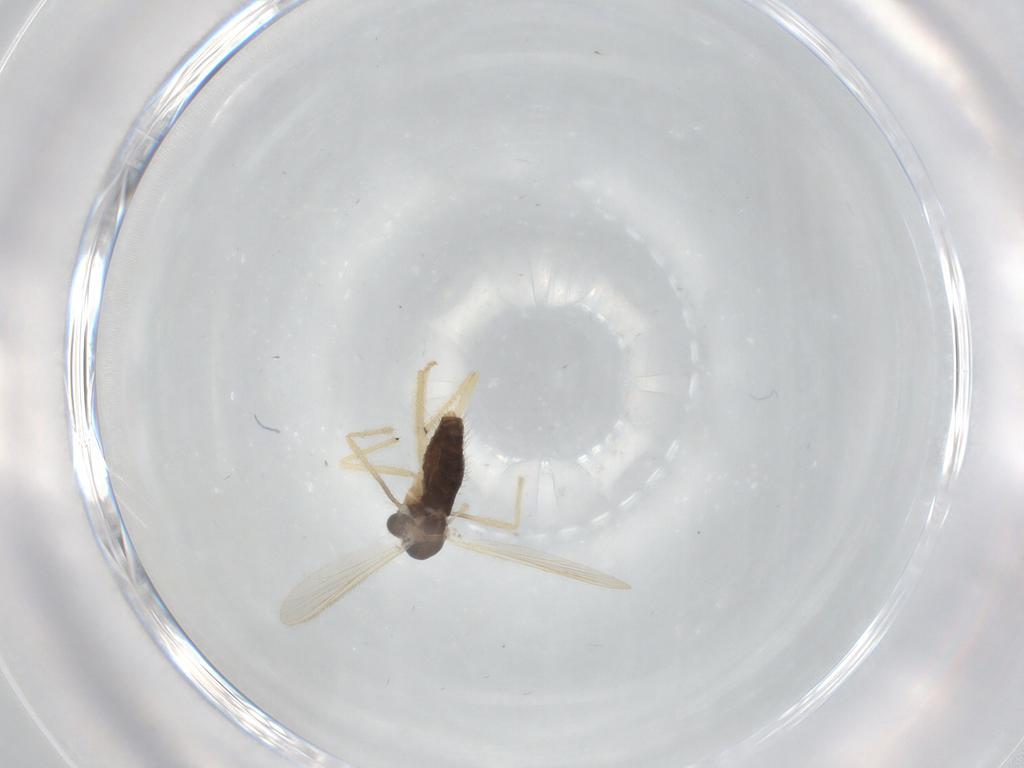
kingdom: Animalia
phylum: Arthropoda
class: Insecta
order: Diptera
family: Chironomidae
